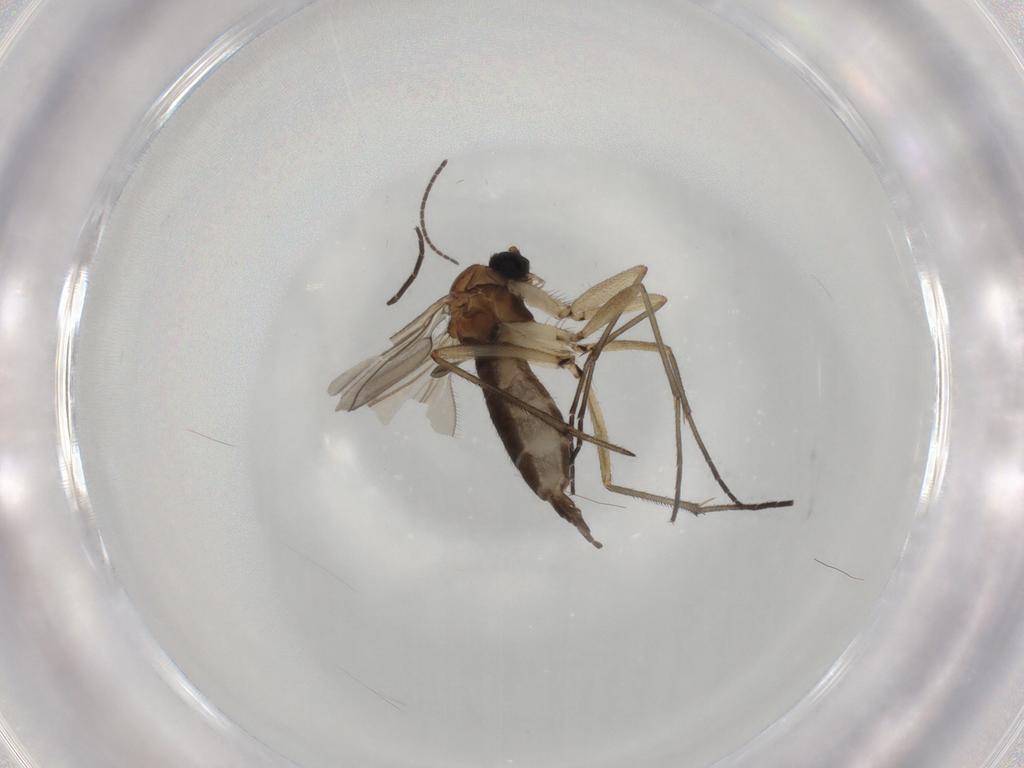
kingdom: Animalia
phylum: Arthropoda
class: Insecta
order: Diptera
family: Sciaridae
